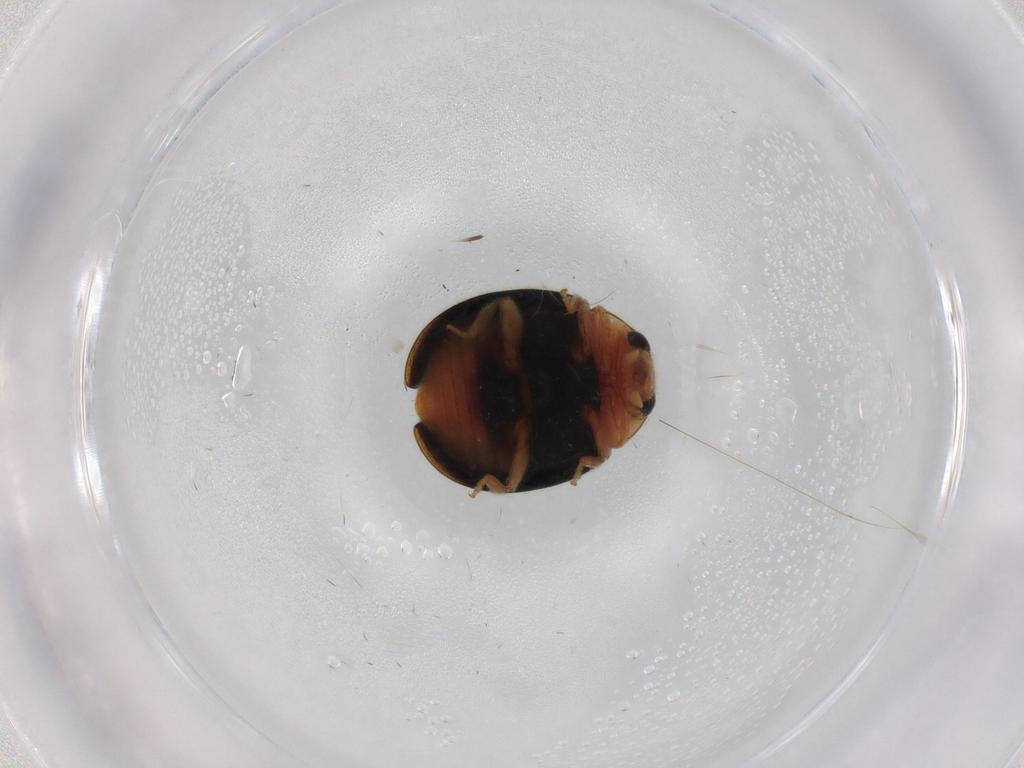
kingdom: Animalia
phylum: Arthropoda
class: Insecta
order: Coleoptera
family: Coccinellidae
